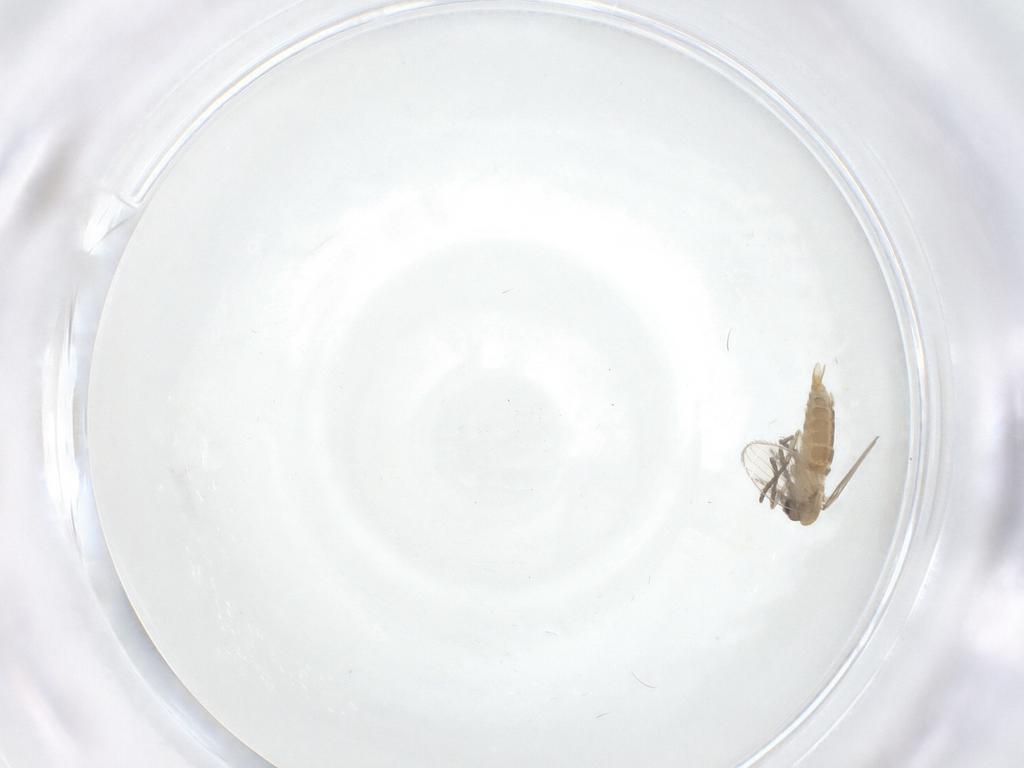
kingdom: Animalia
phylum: Arthropoda
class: Insecta
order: Diptera
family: Psychodidae
